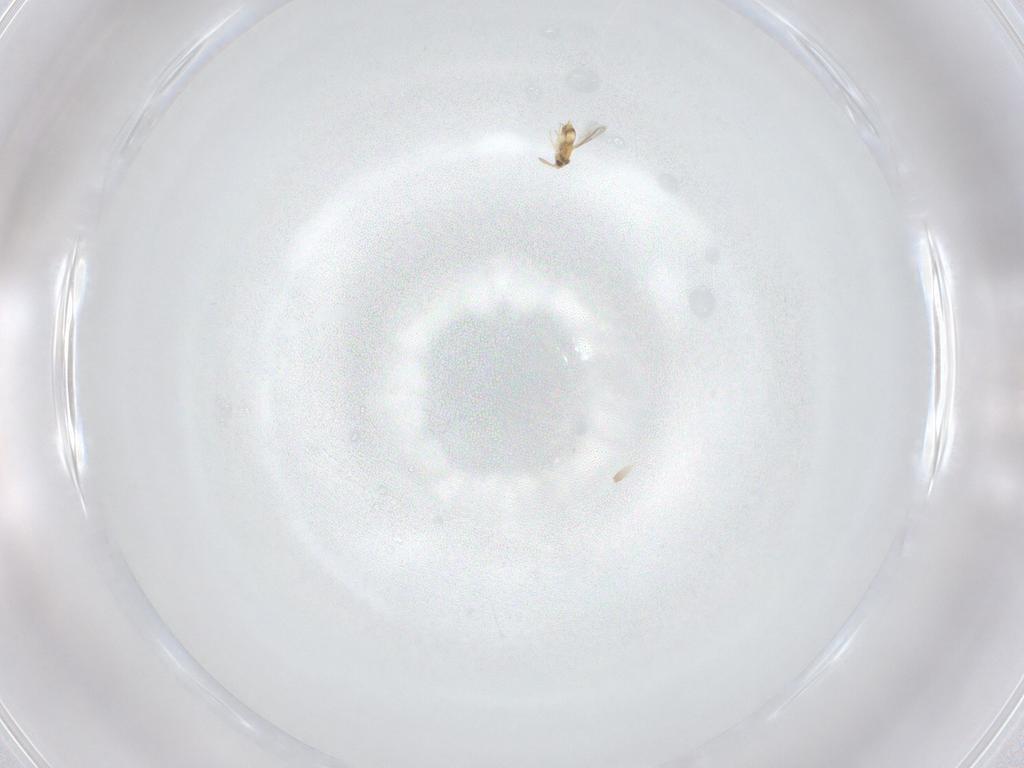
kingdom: Animalia
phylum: Arthropoda
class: Insecta
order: Hymenoptera
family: Aphelinidae
